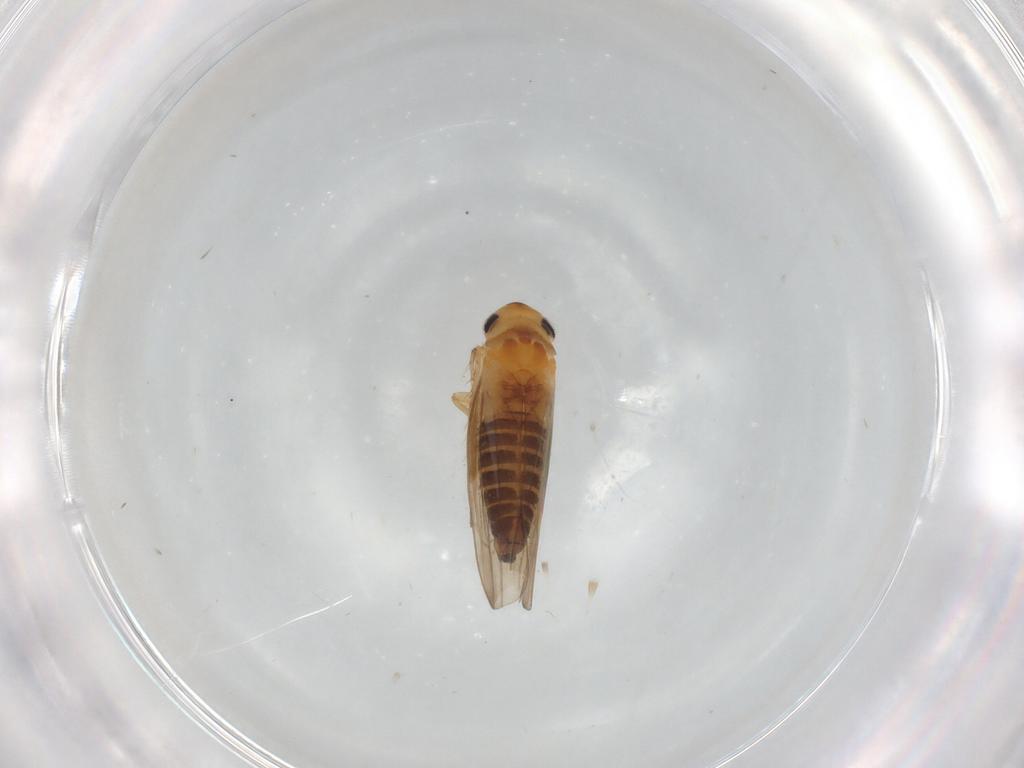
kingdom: Animalia
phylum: Arthropoda
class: Insecta
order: Hemiptera
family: Cicadellidae
